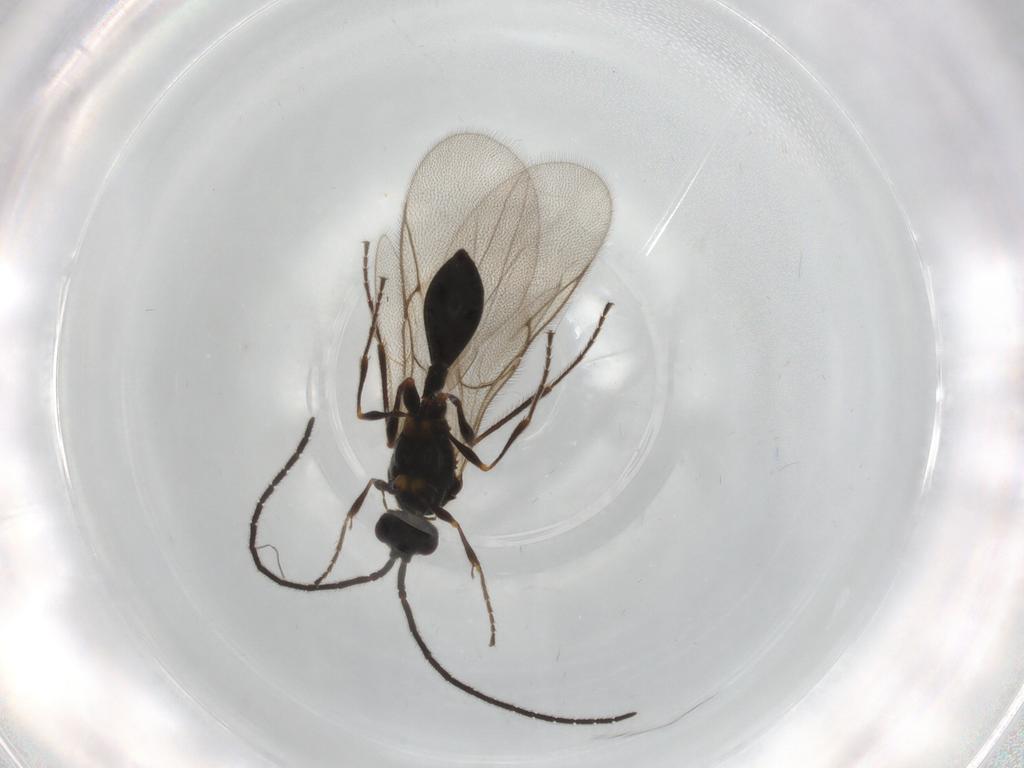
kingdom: Animalia
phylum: Arthropoda
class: Insecta
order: Hymenoptera
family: Diapriidae
